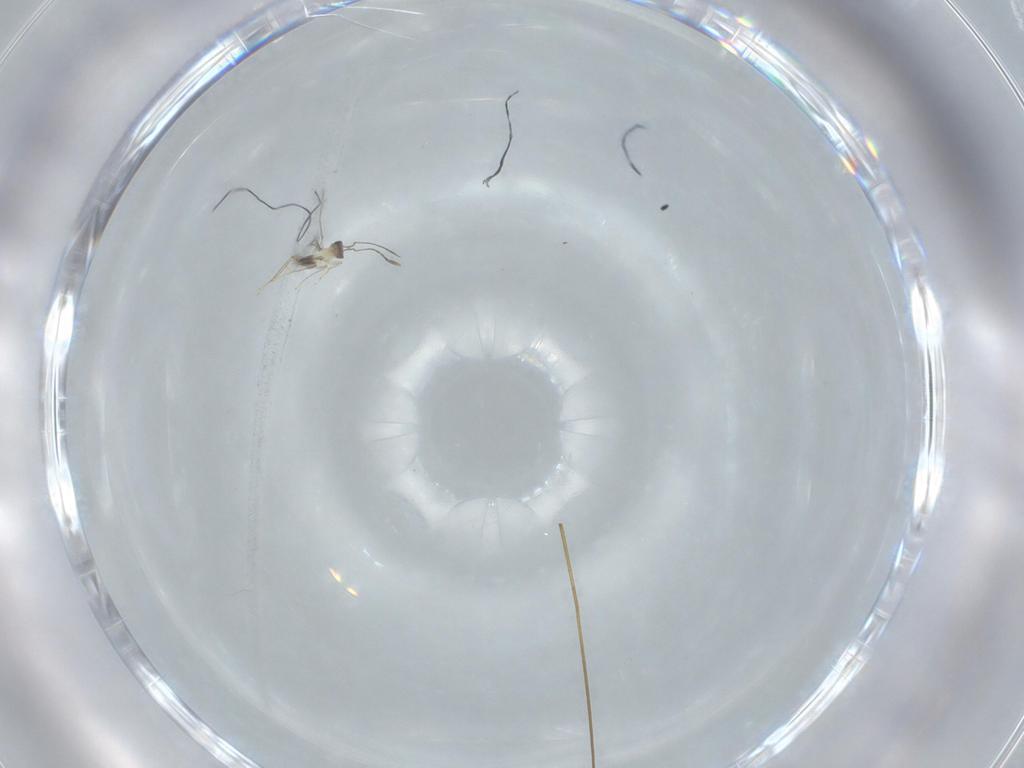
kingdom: Animalia
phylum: Arthropoda
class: Insecta
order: Hymenoptera
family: Mymaridae
